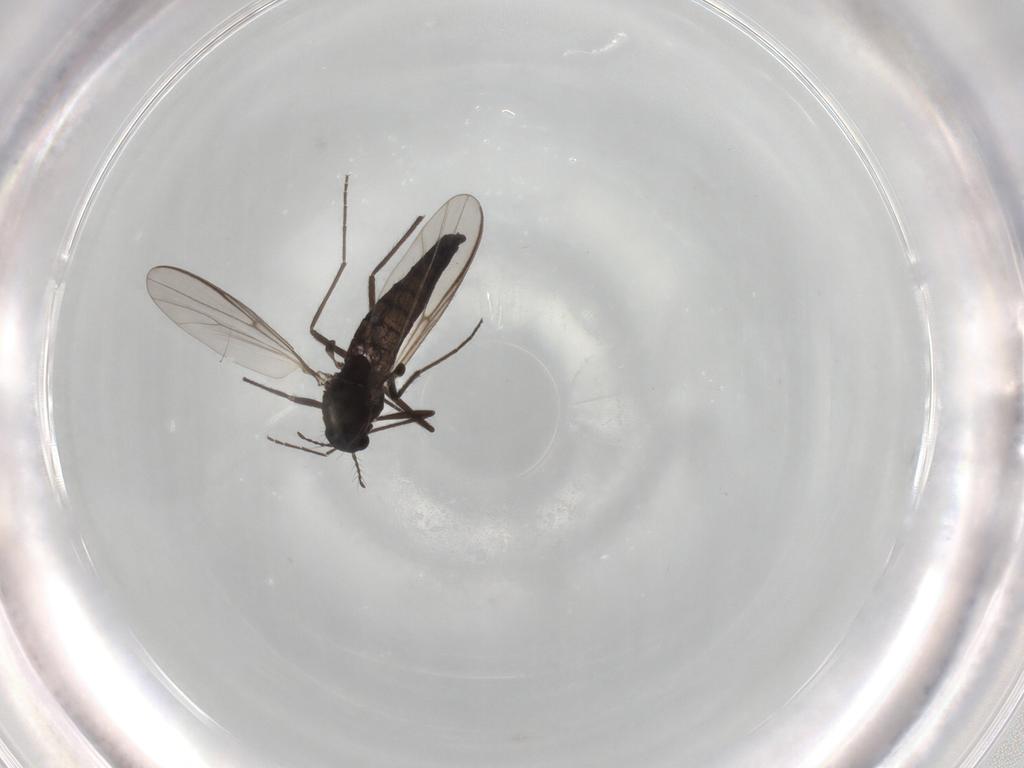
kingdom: Animalia
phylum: Arthropoda
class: Insecta
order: Diptera
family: Chironomidae
